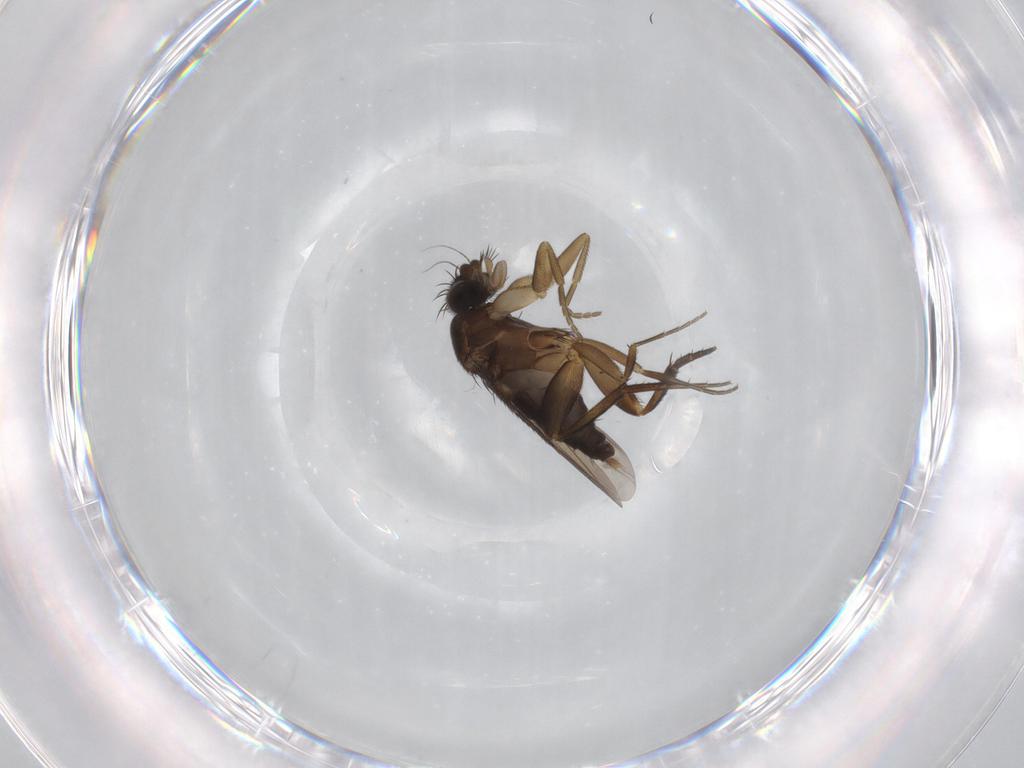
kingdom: Animalia
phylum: Arthropoda
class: Insecta
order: Diptera
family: Phoridae
